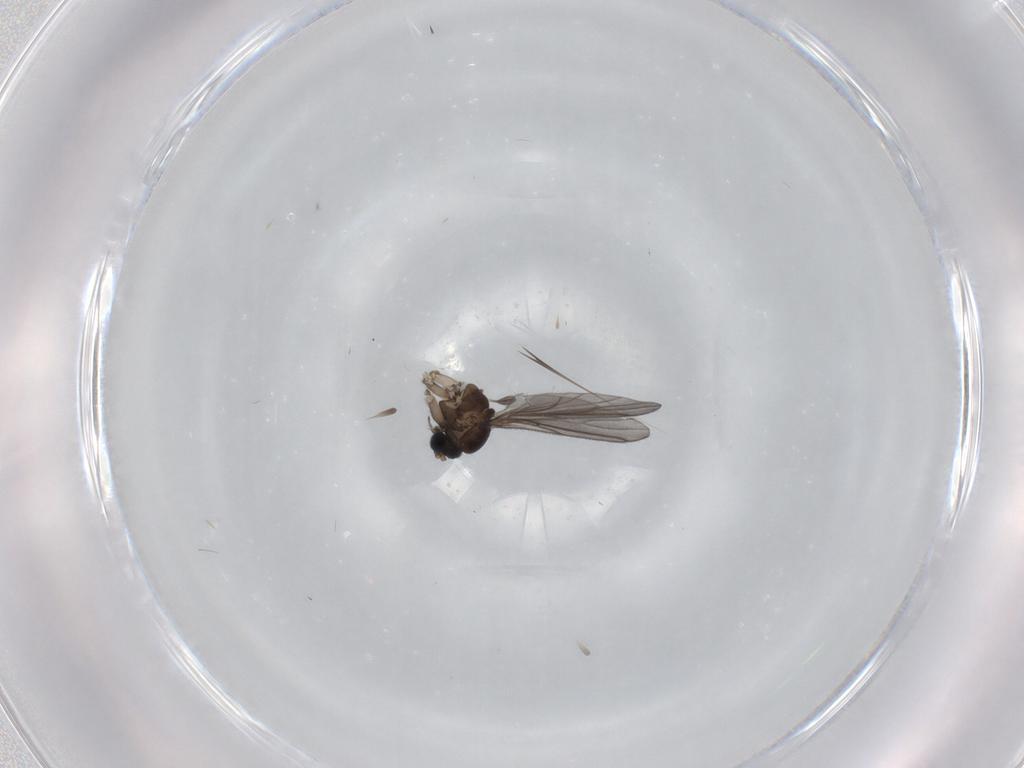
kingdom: Animalia
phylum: Arthropoda
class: Insecta
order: Diptera
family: Sciaridae
